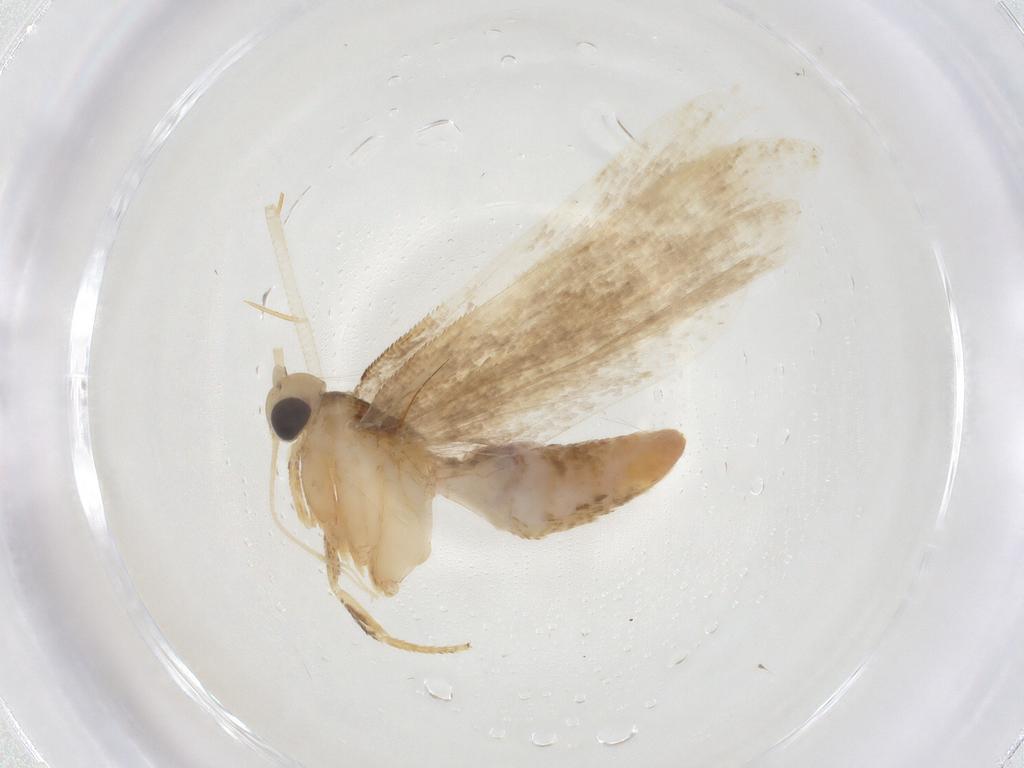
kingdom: Animalia
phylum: Arthropoda
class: Insecta
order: Lepidoptera
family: Gelechiidae
